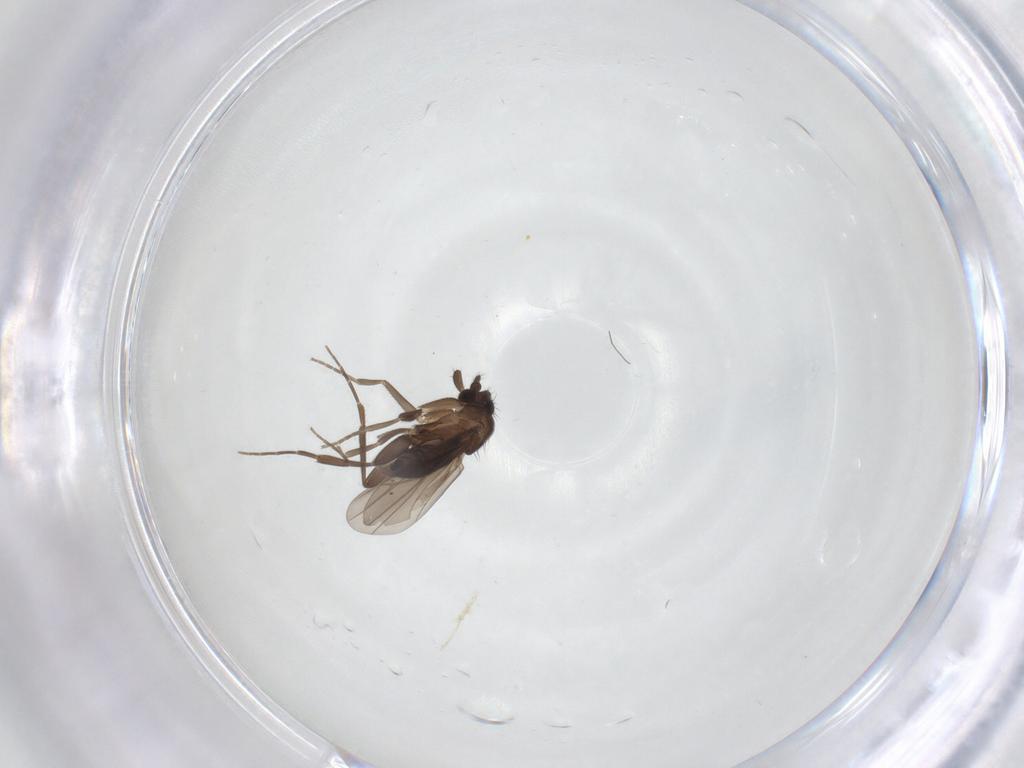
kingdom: Animalia
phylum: Arthropoda
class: Insecta
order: Diptera
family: Phoridae
